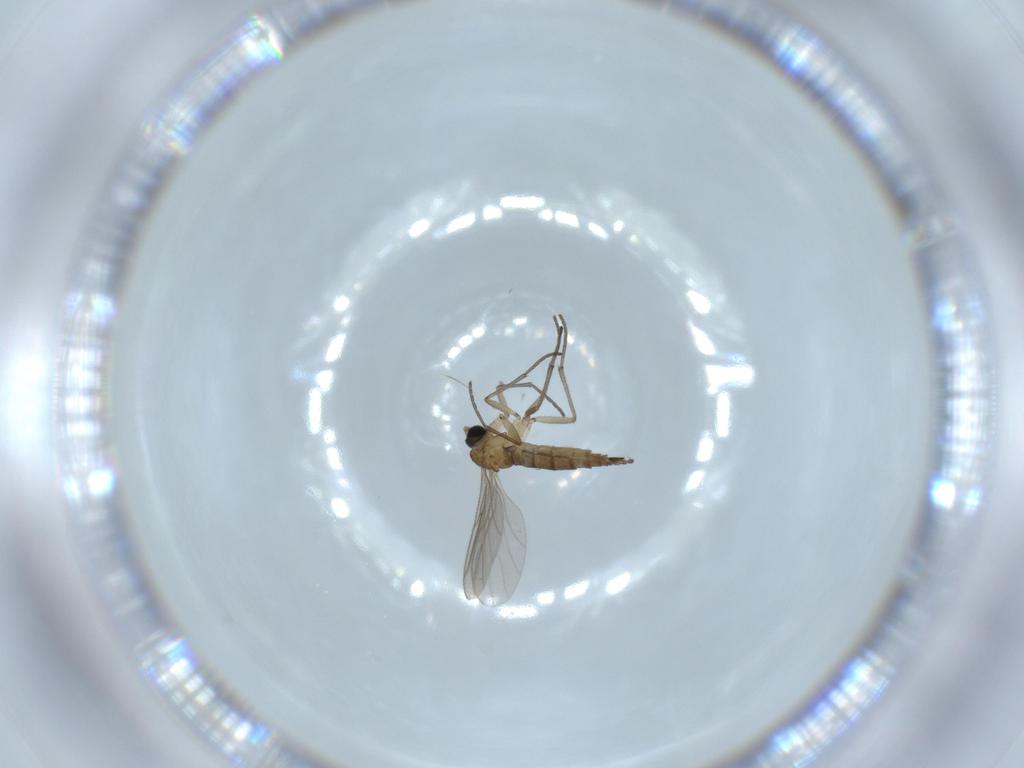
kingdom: Animalia
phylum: Arthropoda
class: Insecta
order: Diptera
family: Sciaridae
